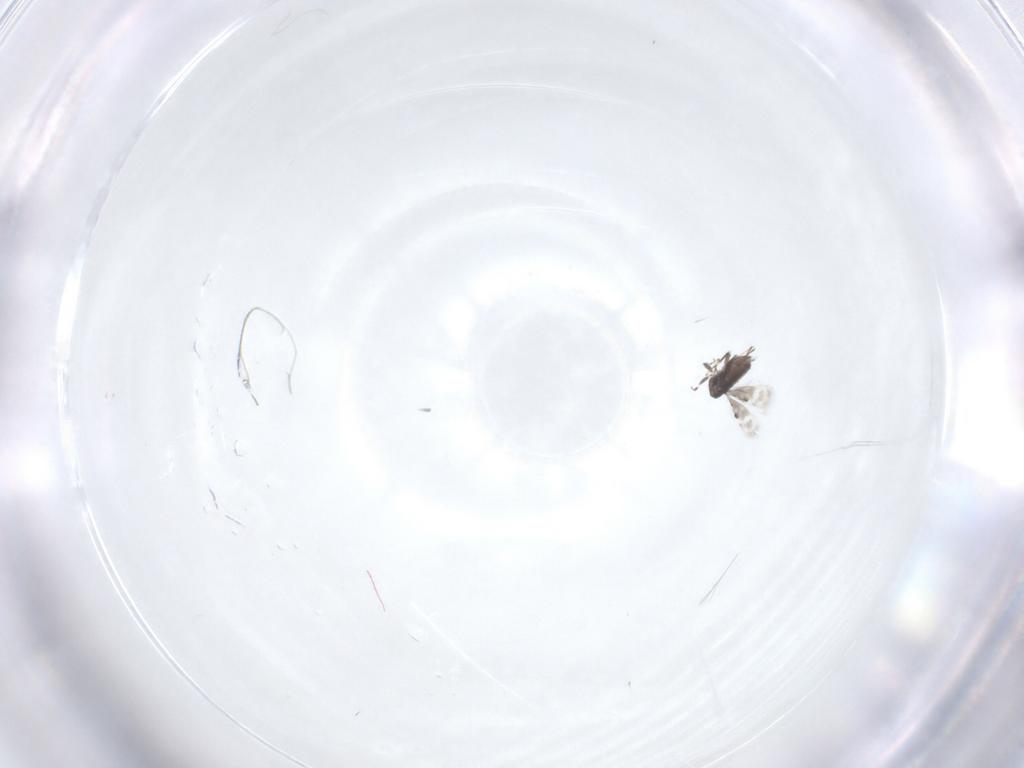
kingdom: Animalia
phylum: Arthropoda
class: Insecta
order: Hymenoptera
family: Azotidae
